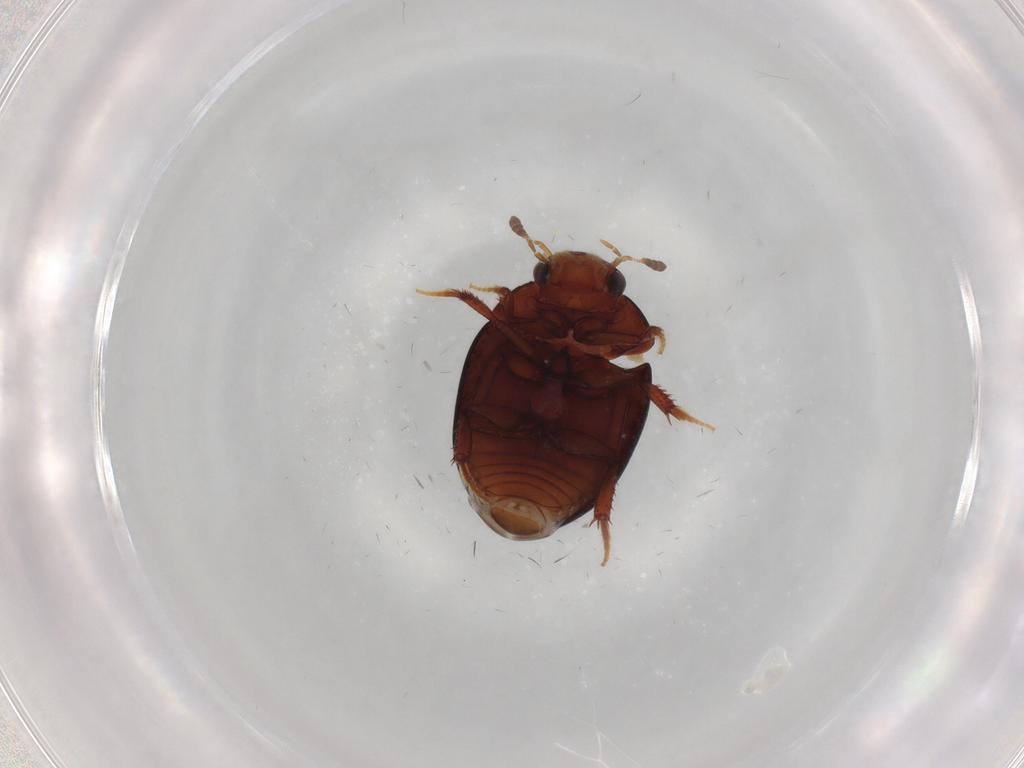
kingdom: Animalia
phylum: Arthropoda
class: Insecta
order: Coleoptera
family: Hydrophilidae
